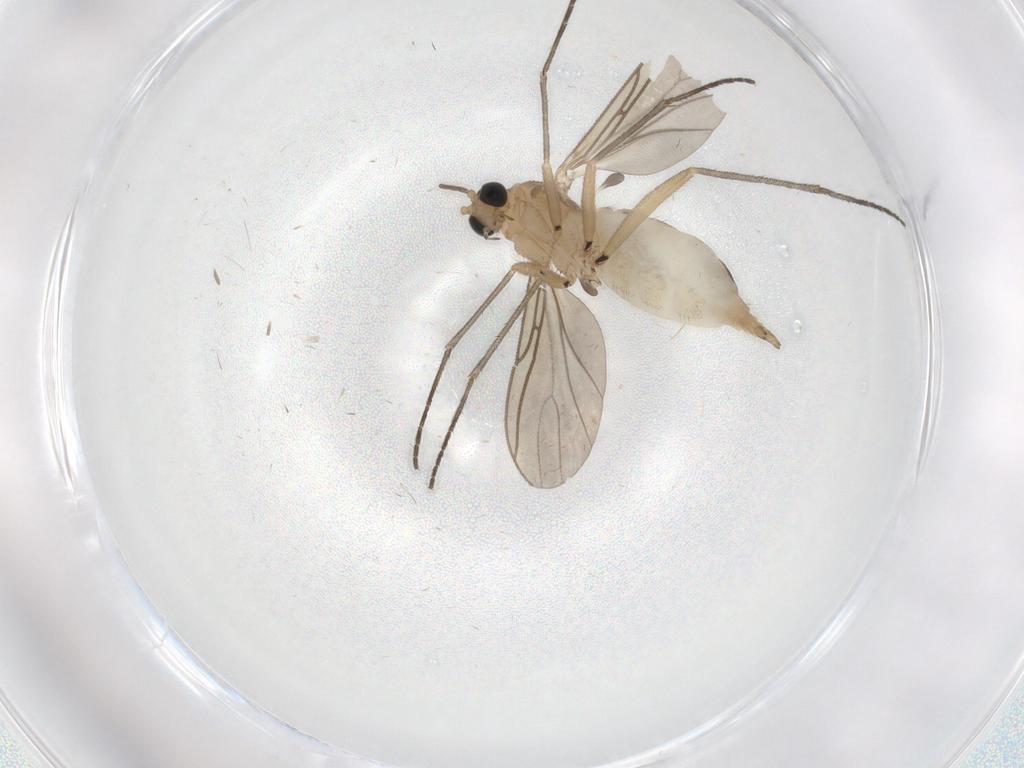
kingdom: Animalia
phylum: Arthropoda
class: Insecta
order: Diptera
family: Sciaridae
